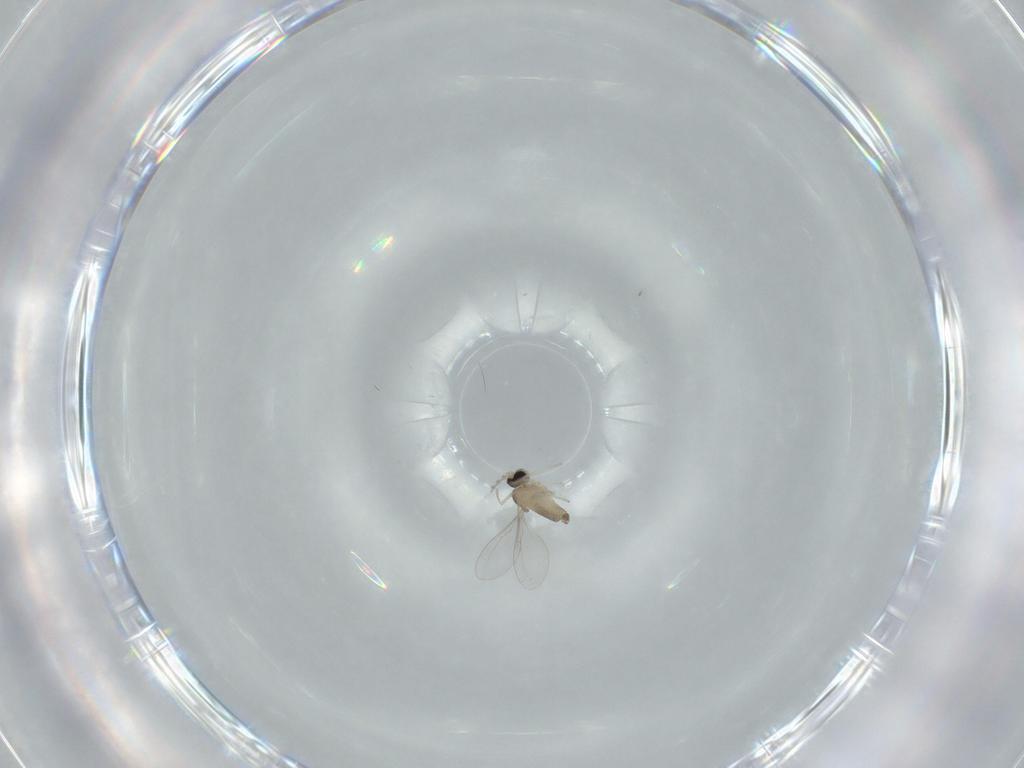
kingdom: Animalia
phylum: Arthropoda
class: Insecta
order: Diptera
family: Cecidomyiidae
